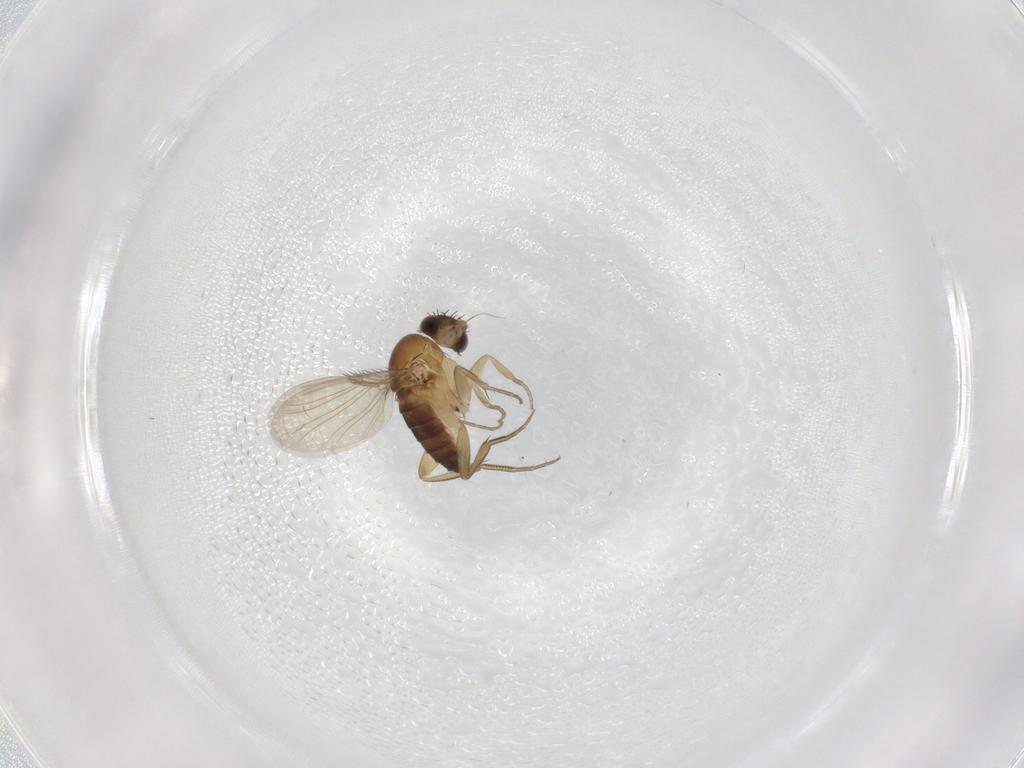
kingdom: Animalia
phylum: Arthropoda
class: Insecta
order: Diptera
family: Phoridae
